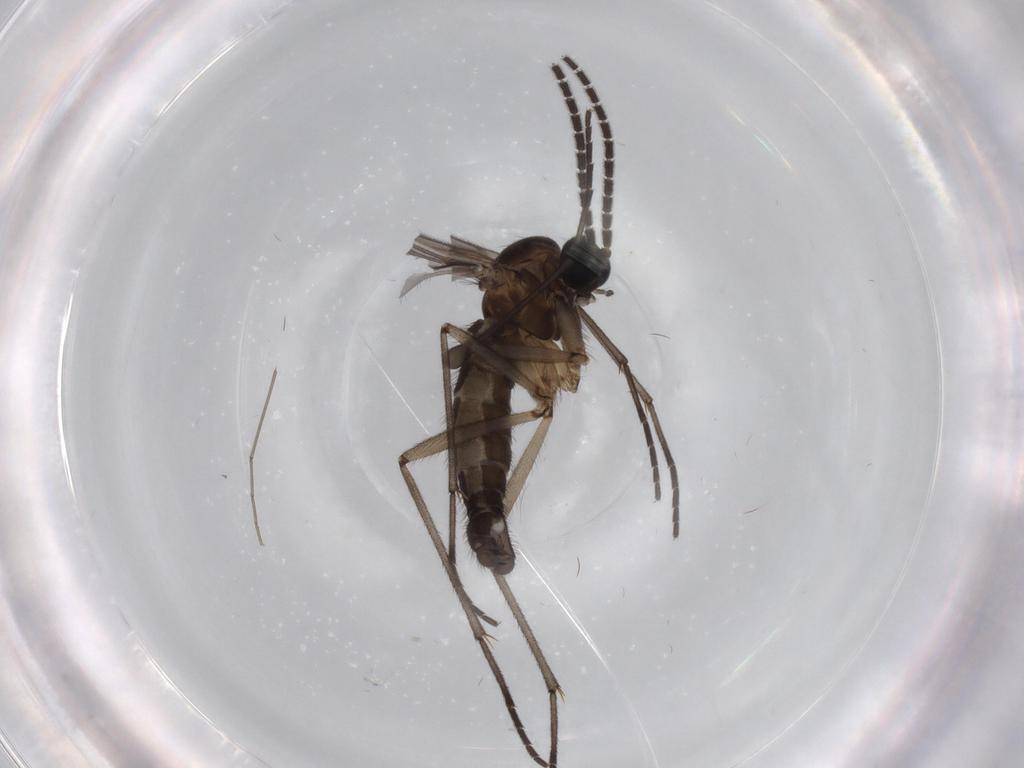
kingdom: Animalia
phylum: Arthropoda
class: Insecta
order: Diptera
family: Sciaridae
